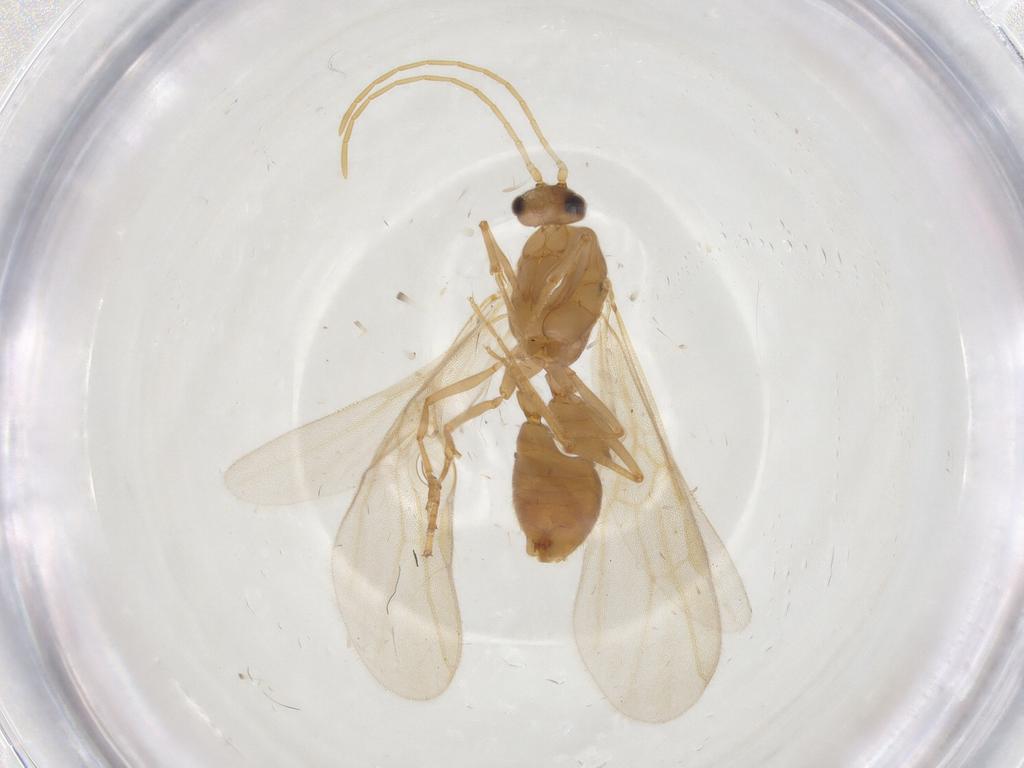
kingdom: Animalia
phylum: Arthropoda
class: Insecta
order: Hymenoptera
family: Formicidae
